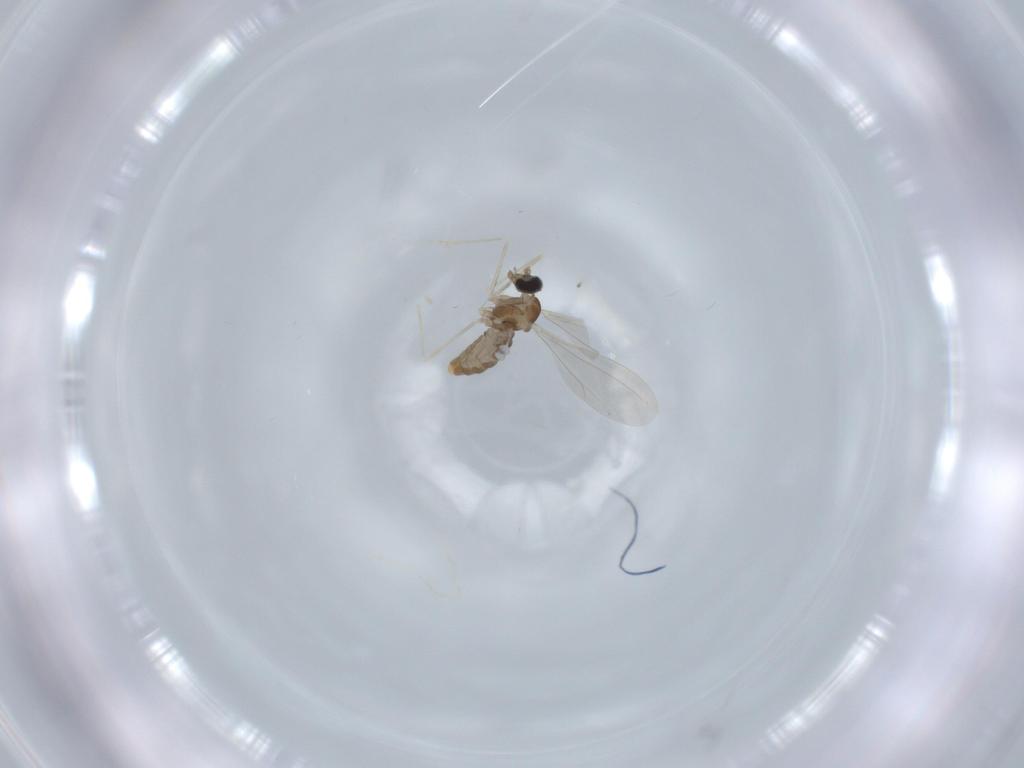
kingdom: Animalia
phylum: Arthropoda
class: Insecta
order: Diptera
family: Cecidomyiidae
